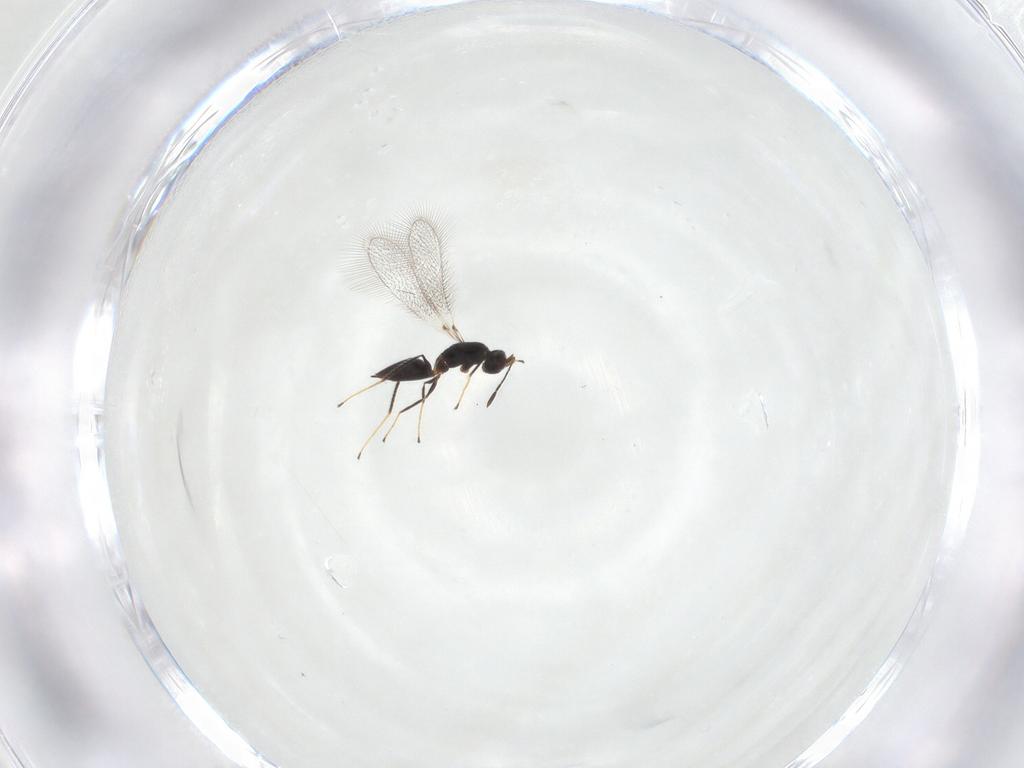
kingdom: Animalia
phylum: Arthropoda
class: Insecta
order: Hymenoptera
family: Mymaridae
